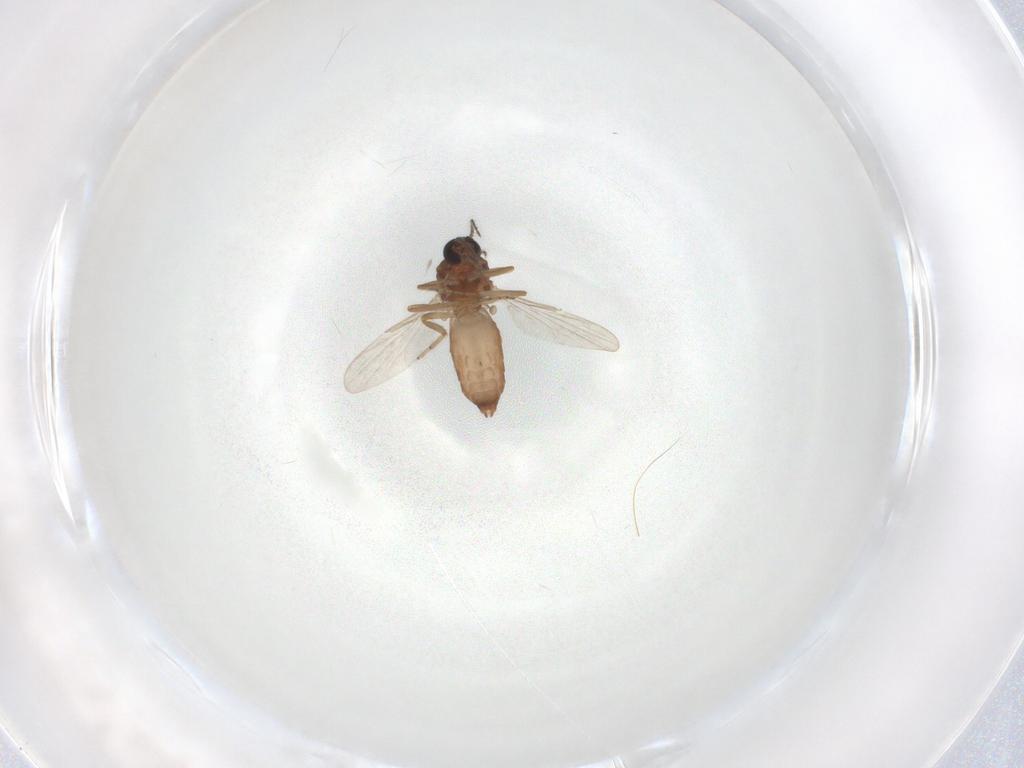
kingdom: Animalia
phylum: Arthropoda
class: Insecta
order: Diptera
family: Ceratopogonidae
